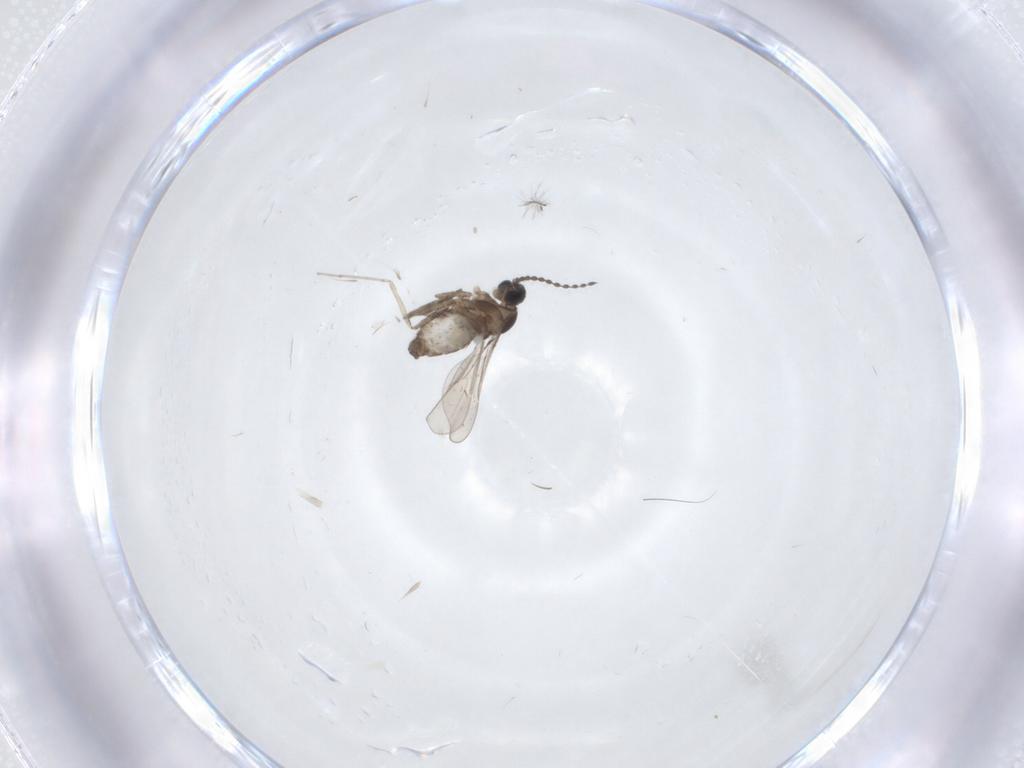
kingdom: Animalia
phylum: Arthropoda
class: Insecta
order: Diptera
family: Cecidomyiidae
